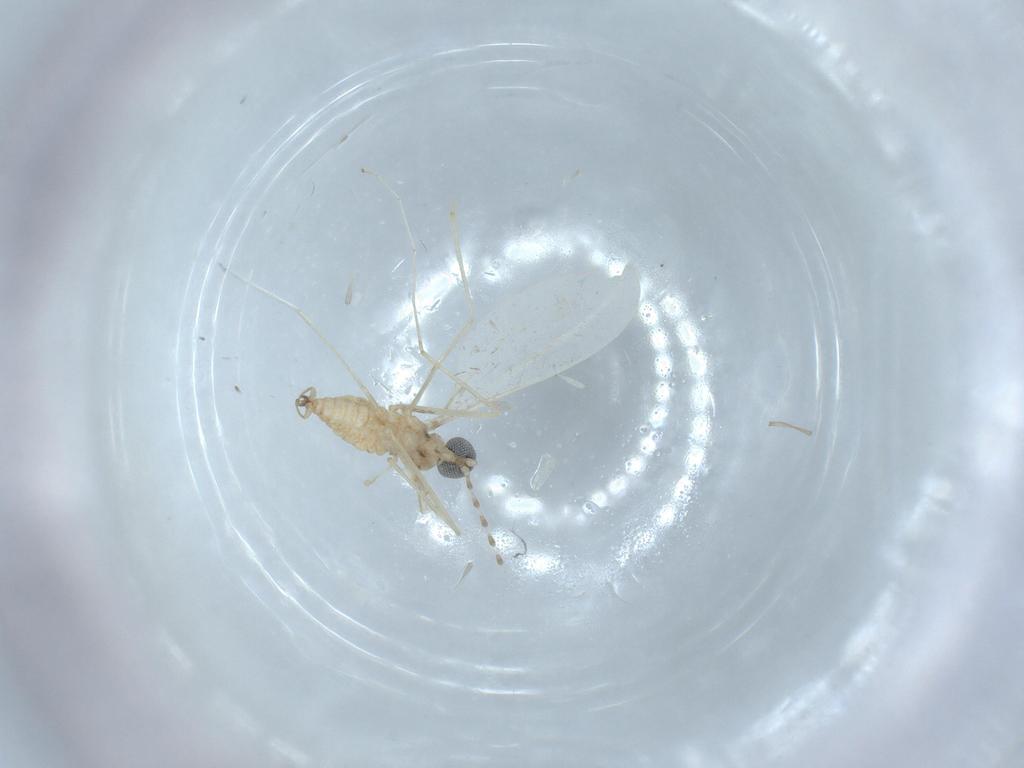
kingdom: Animalia
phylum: Arthropoda
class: Insecta
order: Diptera
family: Cecidomyiidae
